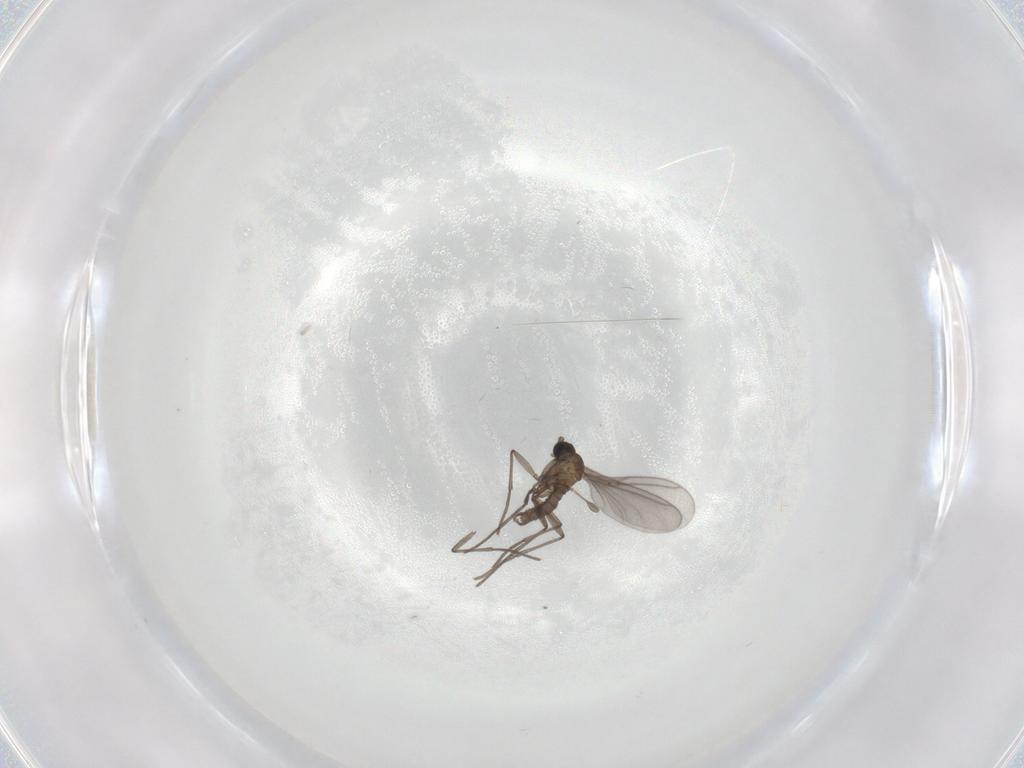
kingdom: Animalia
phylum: Arthropoda
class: Insecta
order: Diptera
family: Sciaridae
